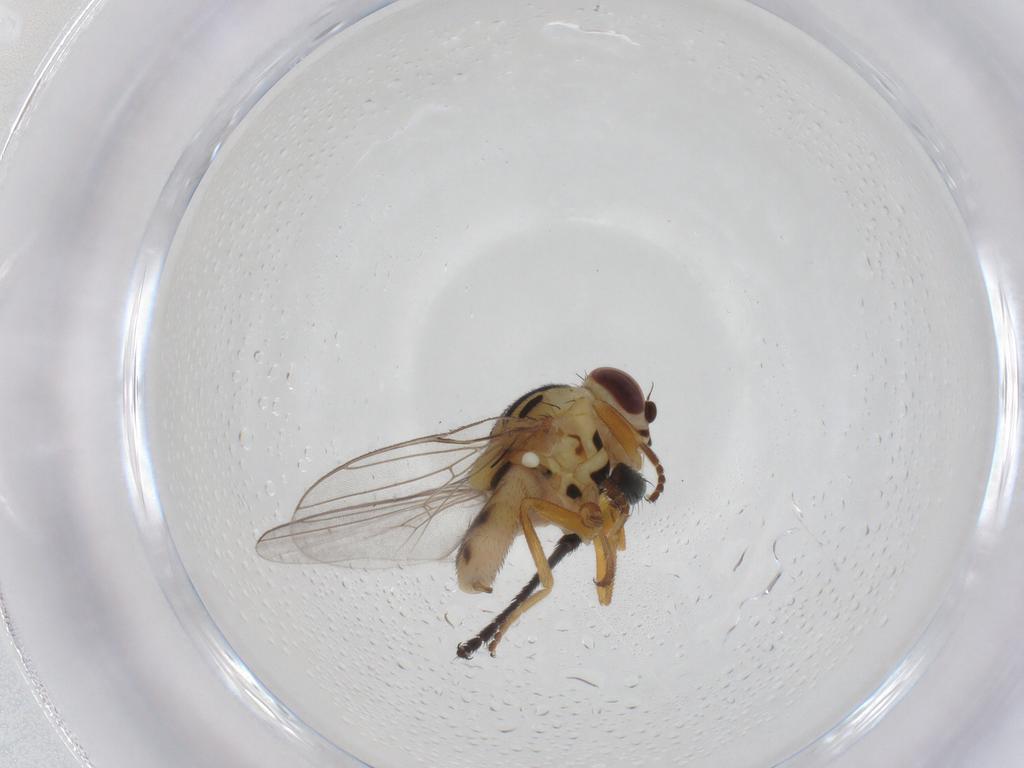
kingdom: Animalia
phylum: Arthropoda
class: Insecta
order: Diptera
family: Chloropidae
